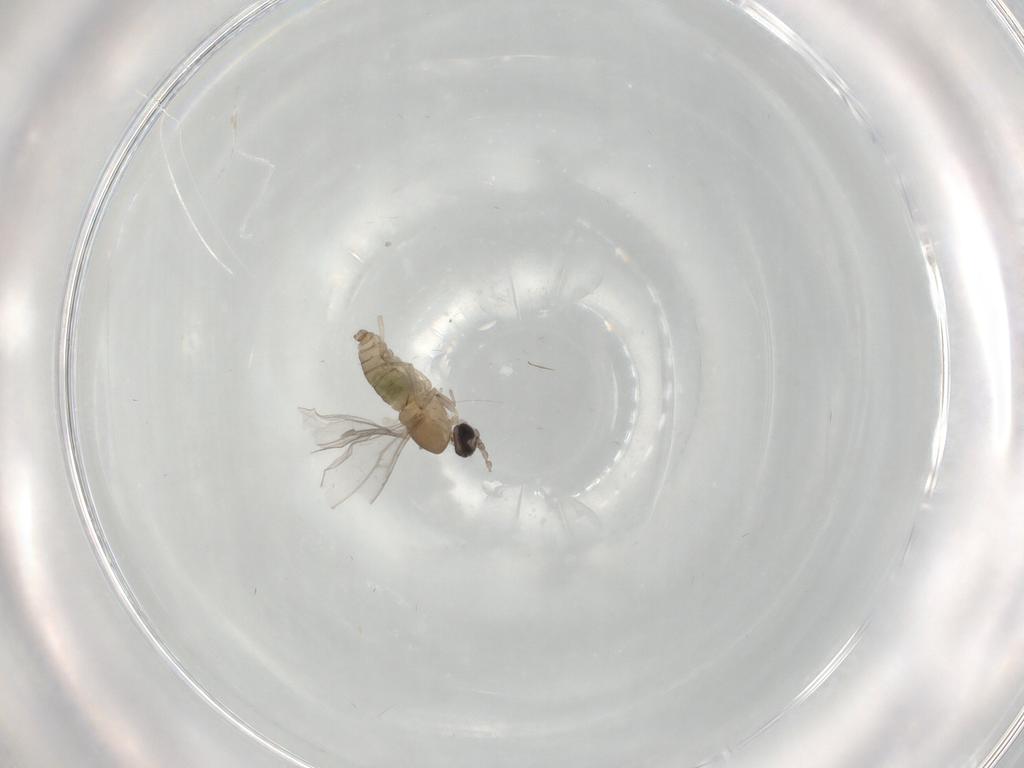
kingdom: Animalia
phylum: Arthropoda
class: Insecta
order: Diptera
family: Cecidomyiidae
